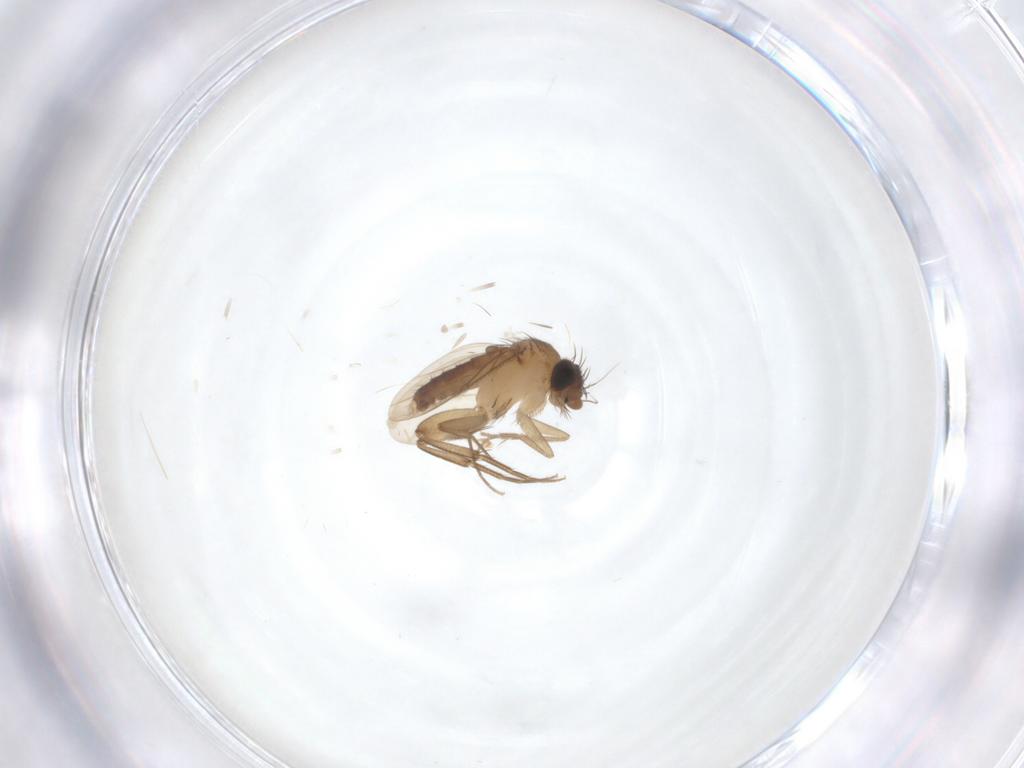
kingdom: Animalia
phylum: Arthropoda
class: Insecta
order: Diptera
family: Phoridae
